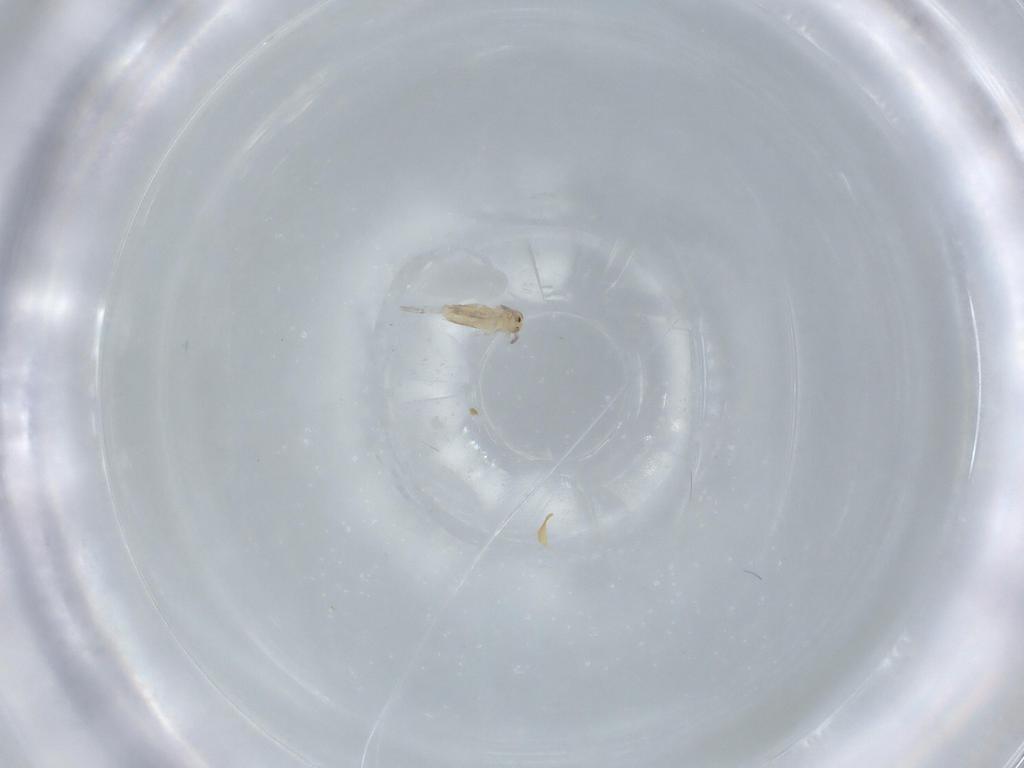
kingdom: Animalia
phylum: Arthropoda
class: Collembola
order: Entomobryomorpha
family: Entomobryidae
